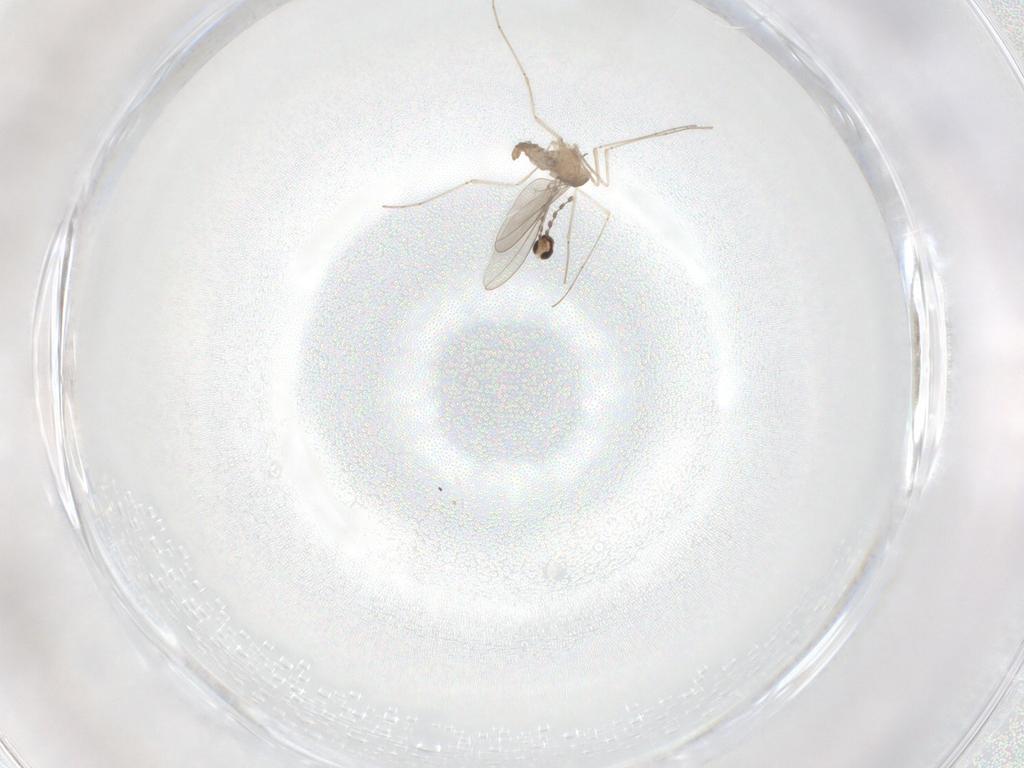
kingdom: Animalia
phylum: Arthropoda
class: Insecta
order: Diptera
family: Cecidomyiidae
